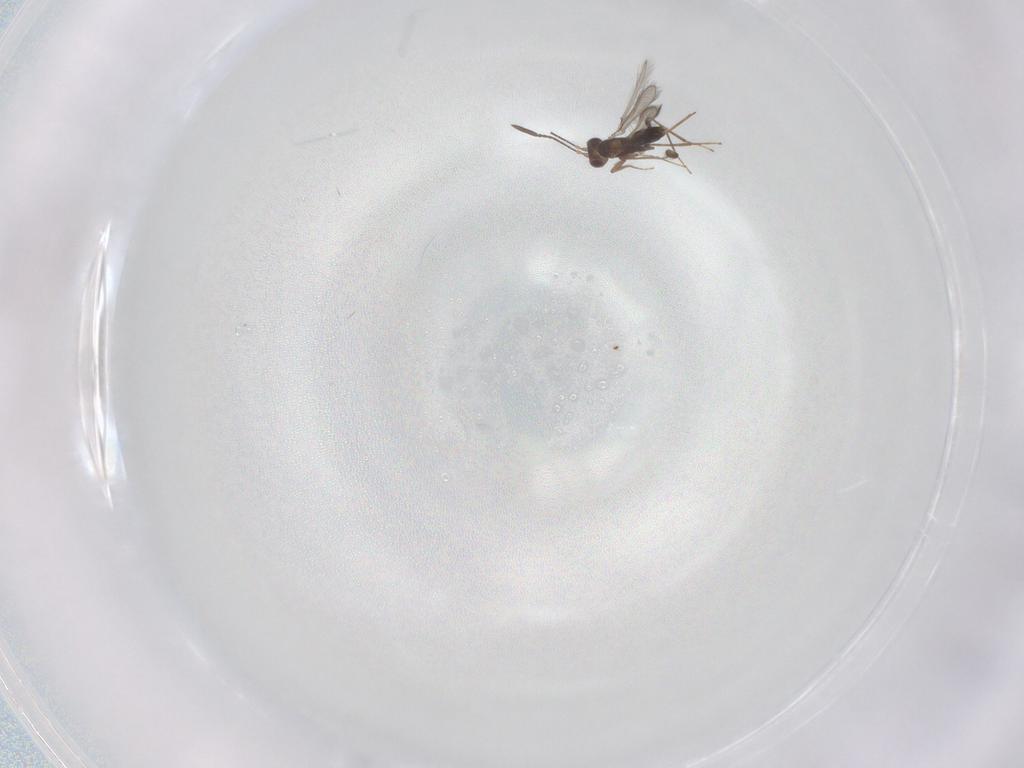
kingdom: Animalia
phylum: Arthropoda
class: Insecta
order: Hymenoptera
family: Mymaridae
